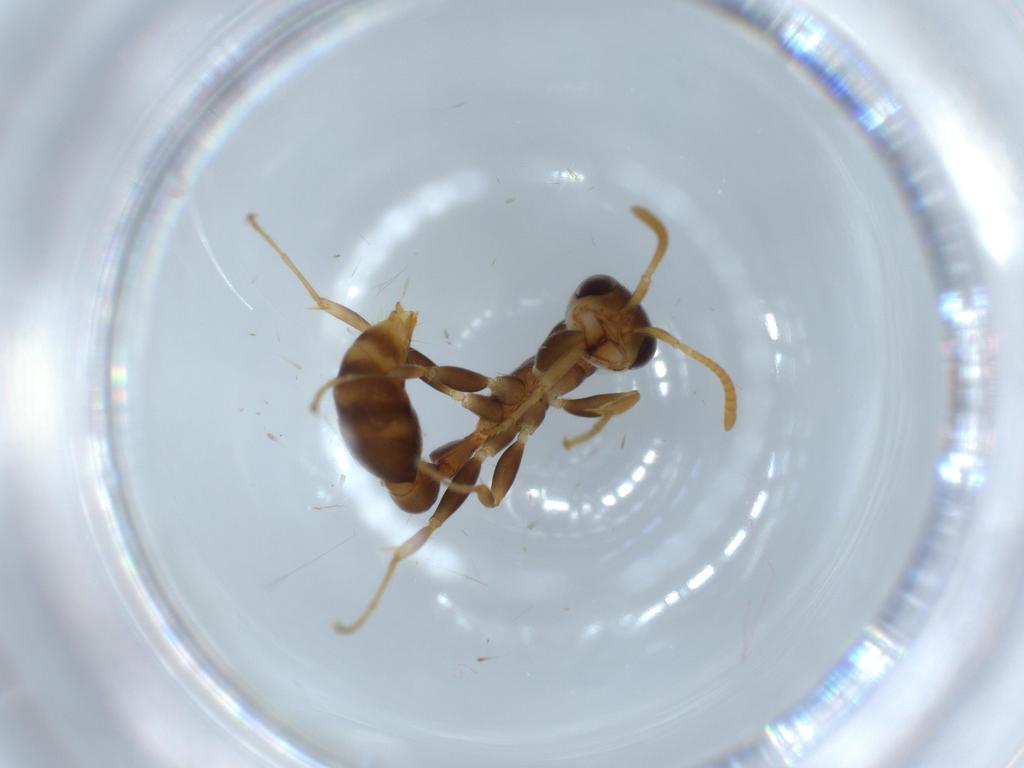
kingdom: Animalia
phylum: Arthropoda
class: Insecta
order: Hymenoptera
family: Formicidae
